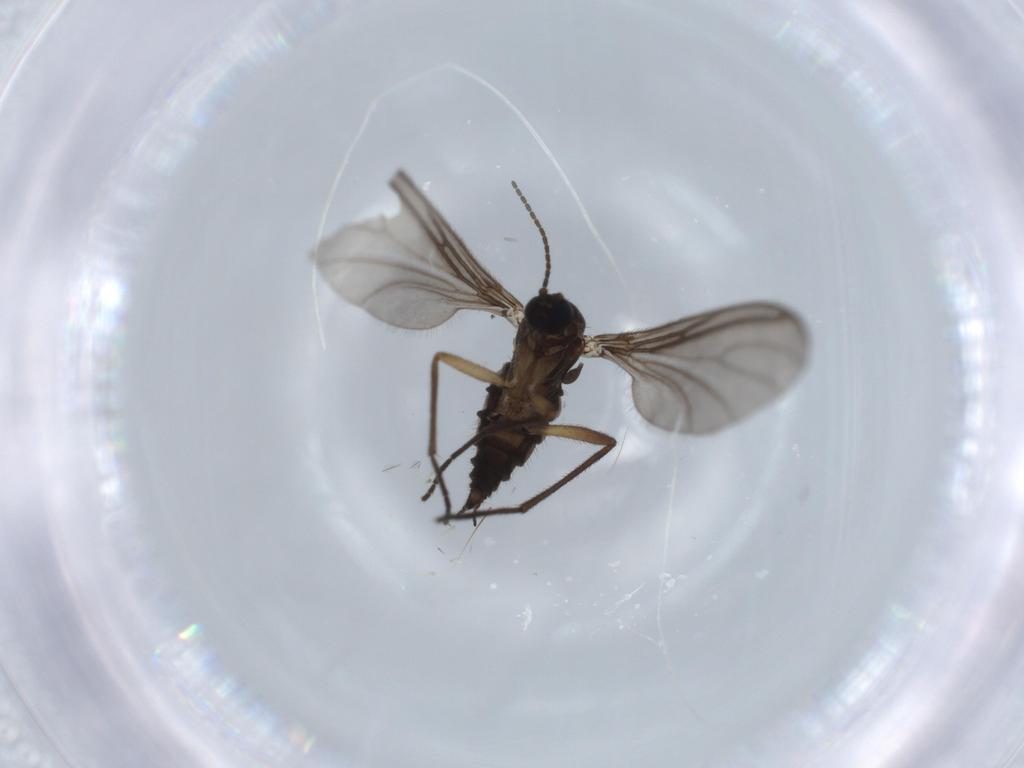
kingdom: Animalia
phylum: Arthropoda
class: Insecta
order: Diptera
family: Sciaridae
